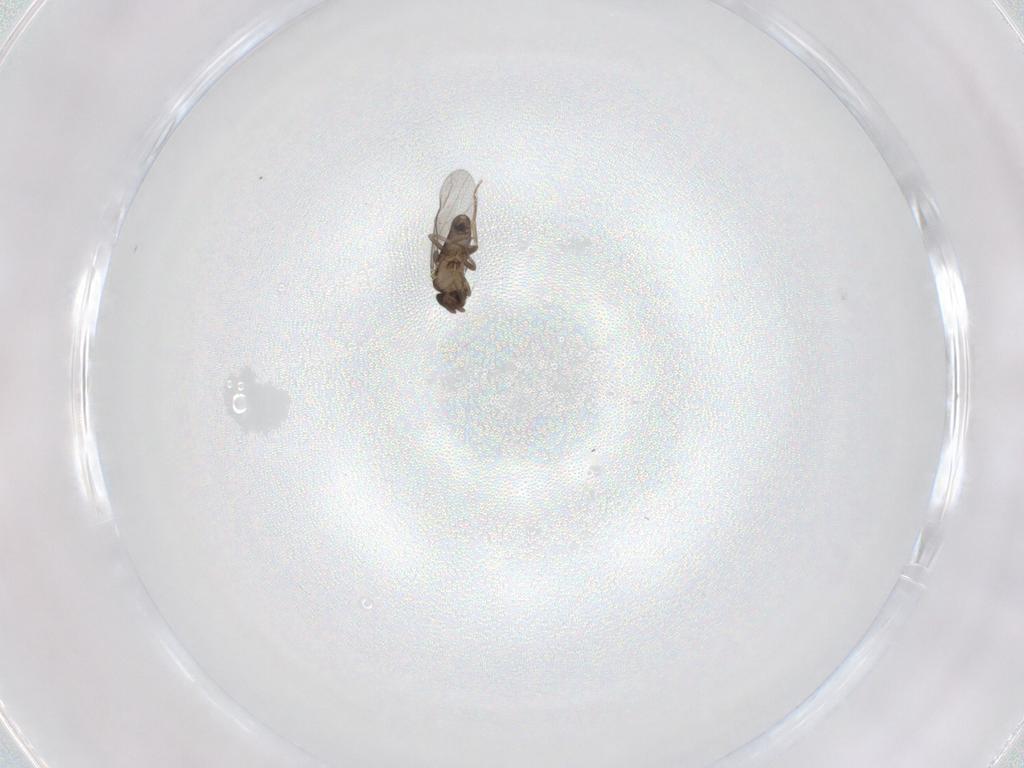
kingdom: Animalia
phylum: Arthropoda
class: Insecta
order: Diptera
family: Cecidomyiidae
